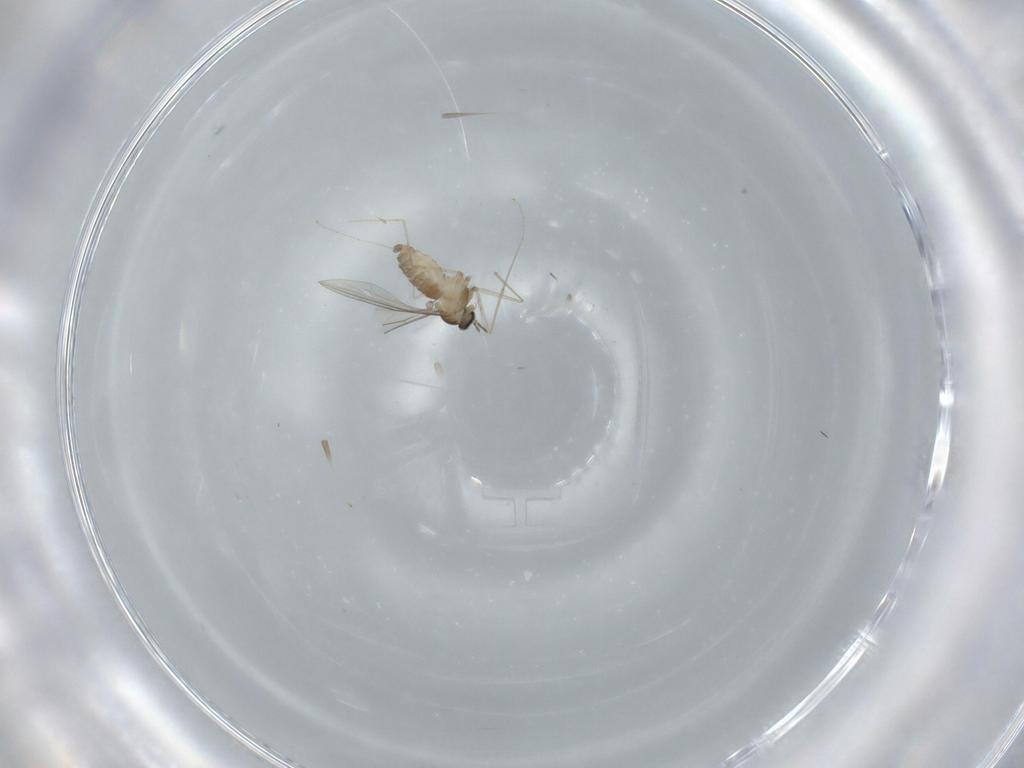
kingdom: Animalia
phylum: Arthropoda
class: Insecta
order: Diptera
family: Cecidomyiidae
